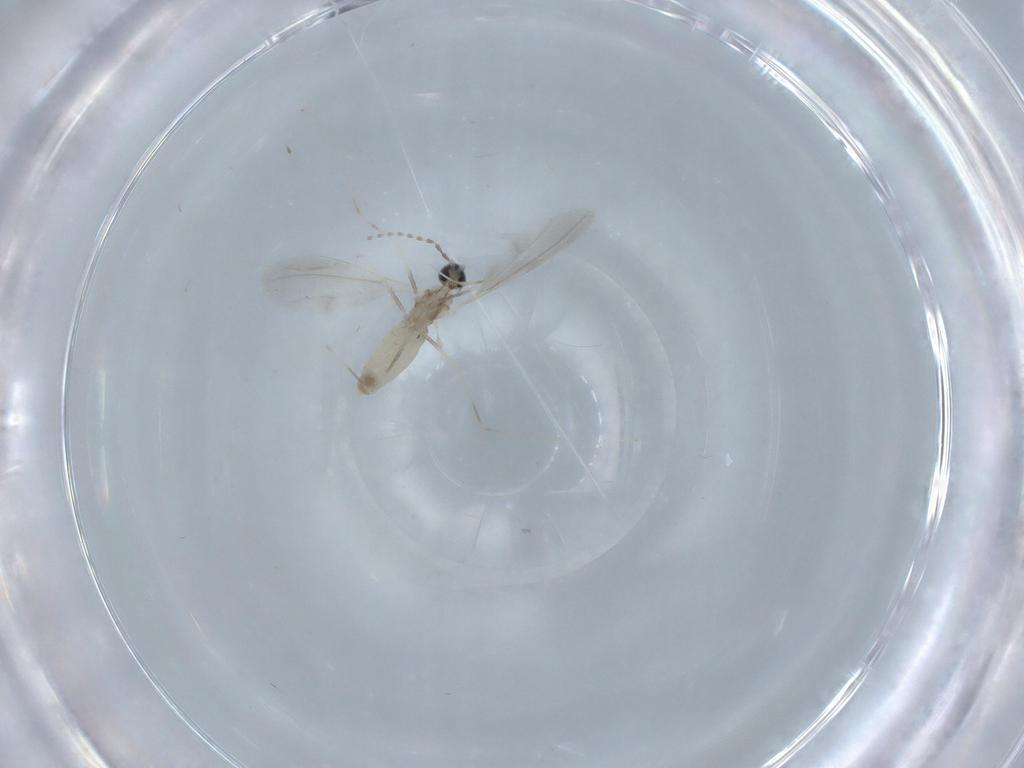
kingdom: Animalia
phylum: Arthropoda
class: Insecta
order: Diptera
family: Cecidomyiidae
